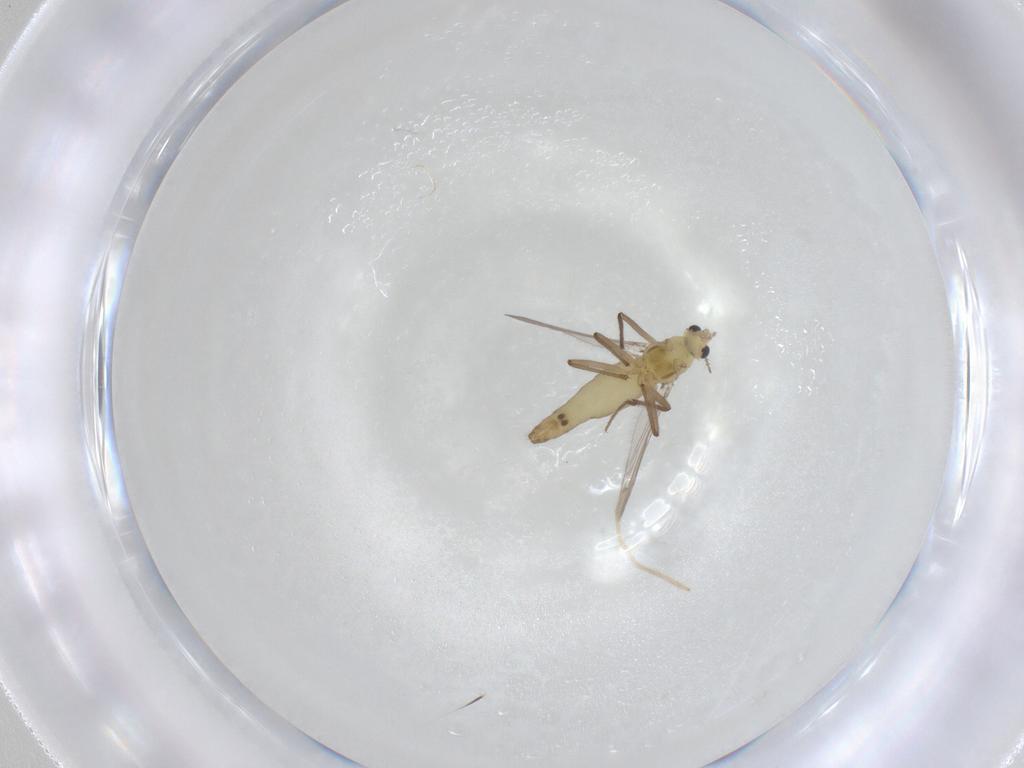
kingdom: Animalia
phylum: Arthropoda
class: Insecta
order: Diptera
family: Chironomidae
